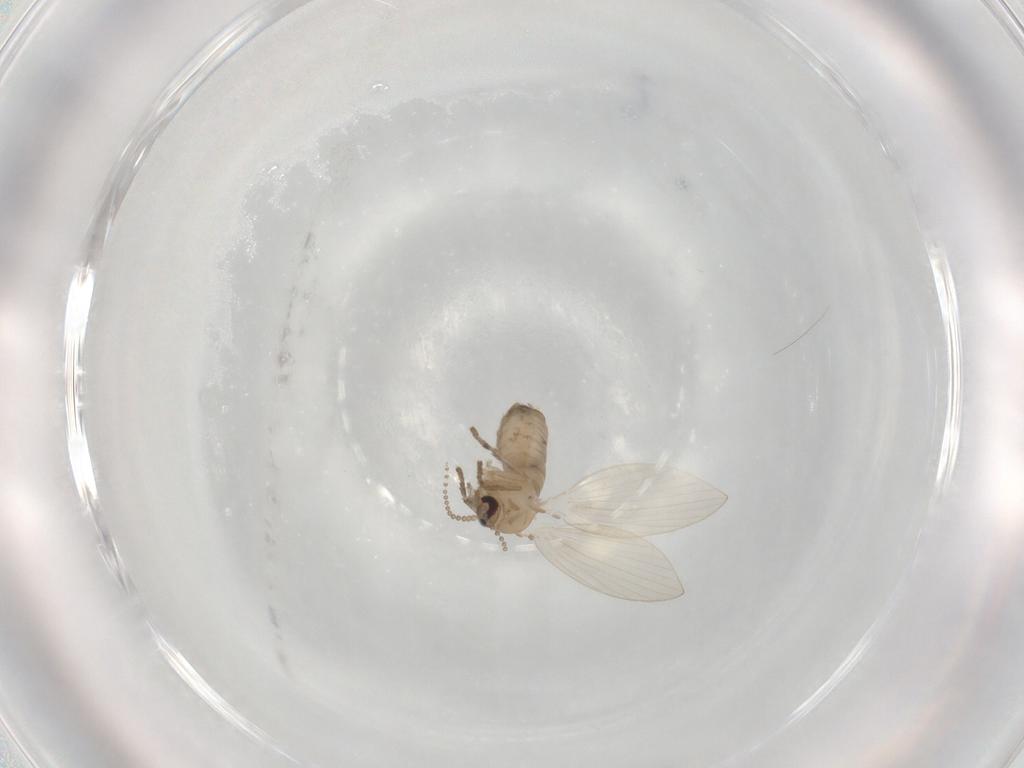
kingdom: Animalia
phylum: Arthropoda
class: Insecta
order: Diptera
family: Psychodidae
